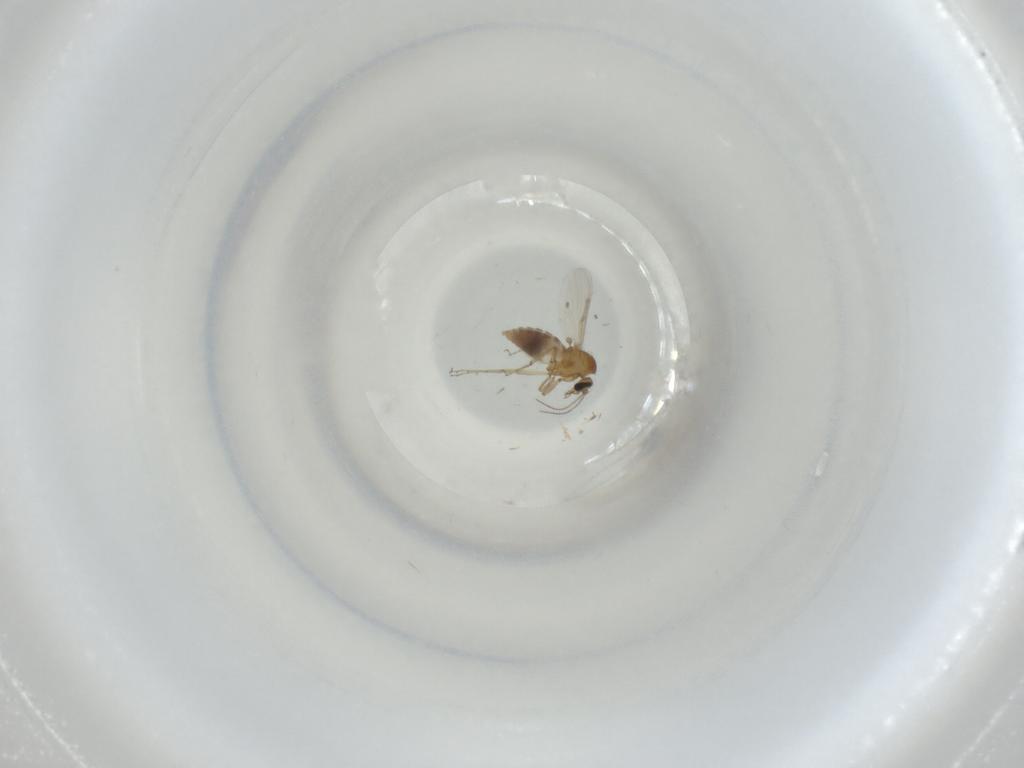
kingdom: Animalia
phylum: Arthropoda
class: Insecta
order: Diptera
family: Ceratopogonidae
